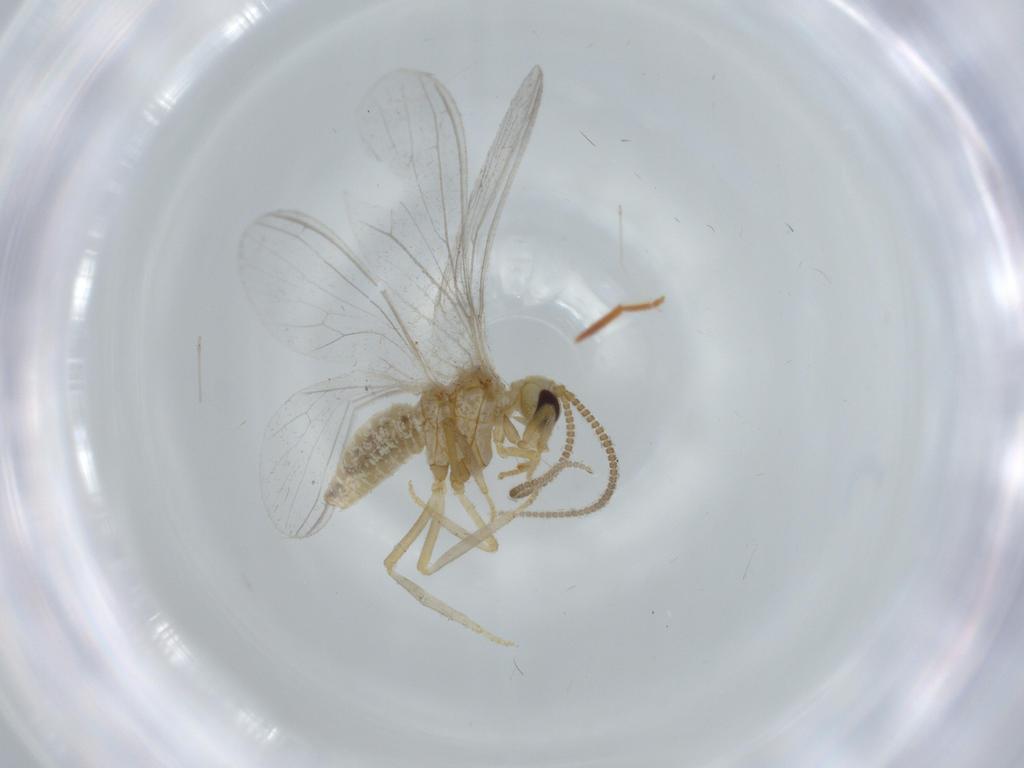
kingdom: Animalia
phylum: Arthropoda
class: Insecta
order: Neuroptera
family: Coniopterygidae
